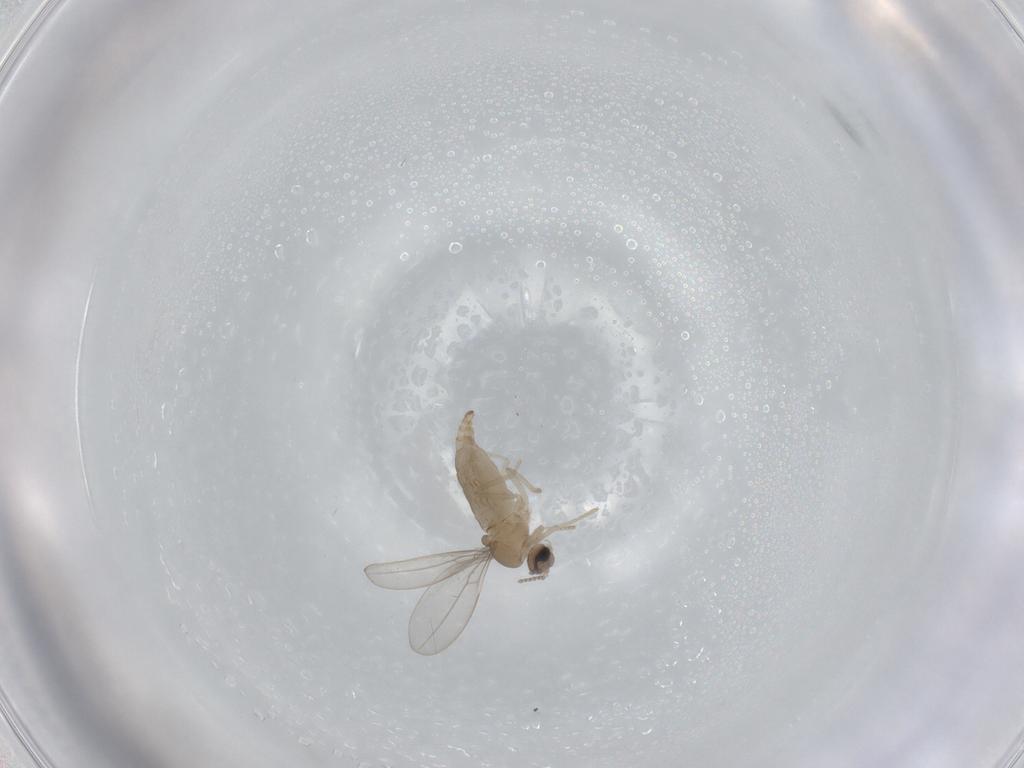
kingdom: Animalia
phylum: Arthropoda
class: Insecta
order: Diptera
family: Cecidomyiidae
